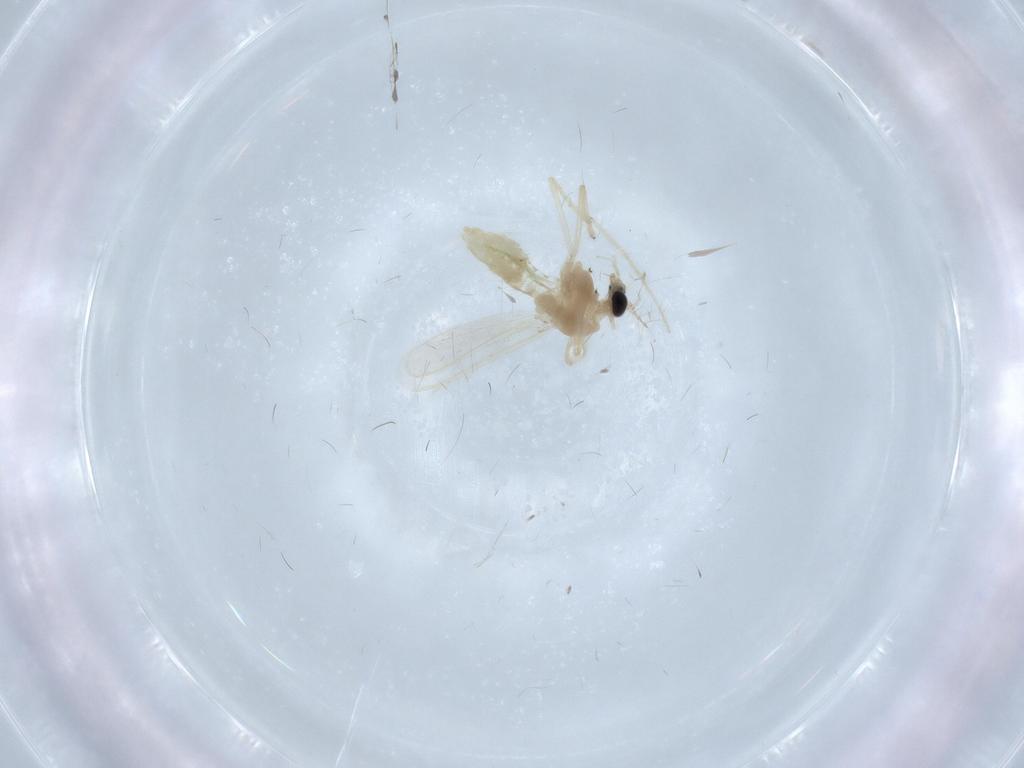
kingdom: Animalia
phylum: Arthropoda
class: Insecta
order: Diptera
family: Chironomidae
